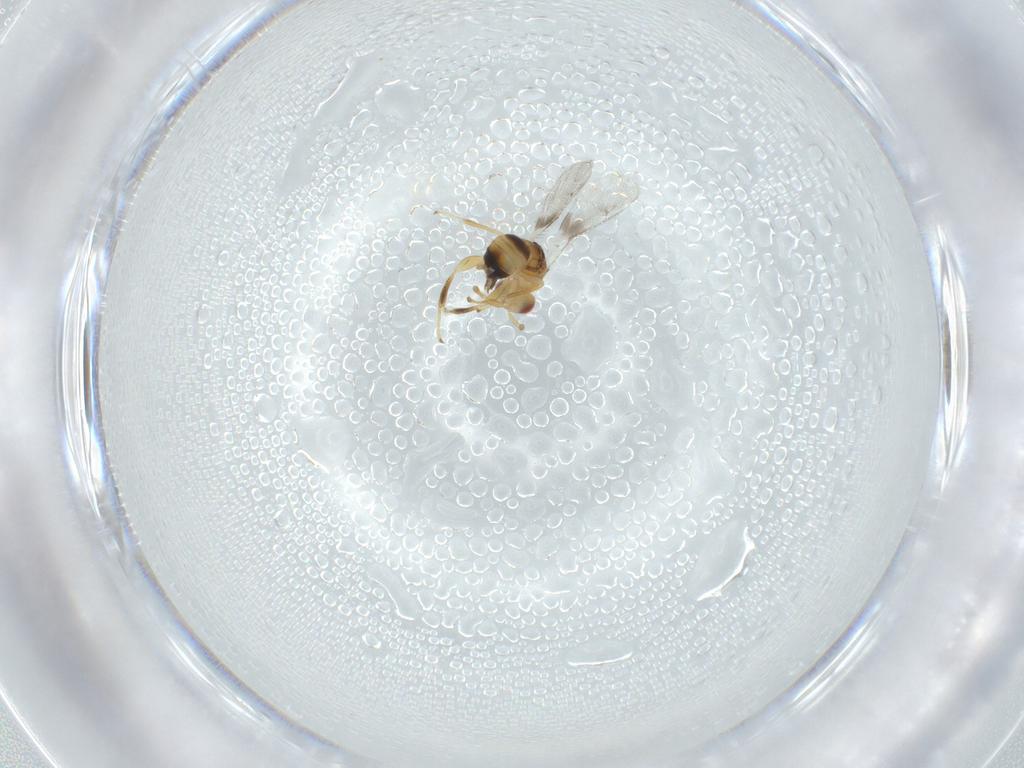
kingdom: Animalia
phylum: Arthropoda
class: Insecta
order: Hymenoptera
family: Torymidae
